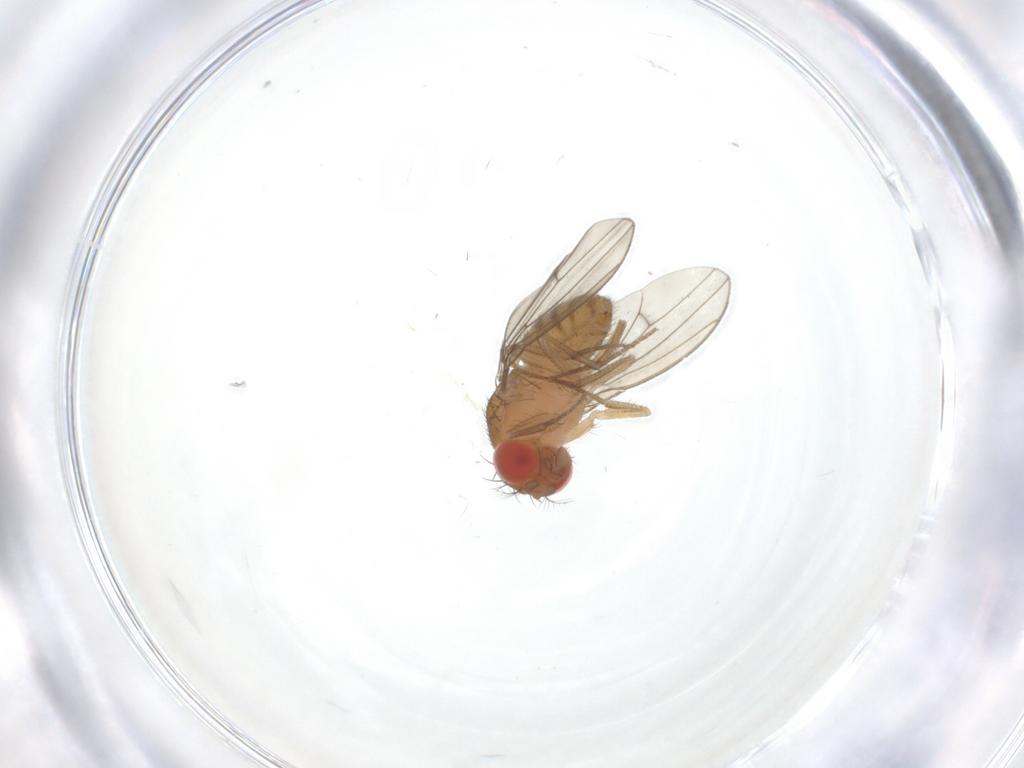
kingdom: Animalia
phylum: Arthropoda
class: Insecta
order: Diptera
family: Drosophilidae
